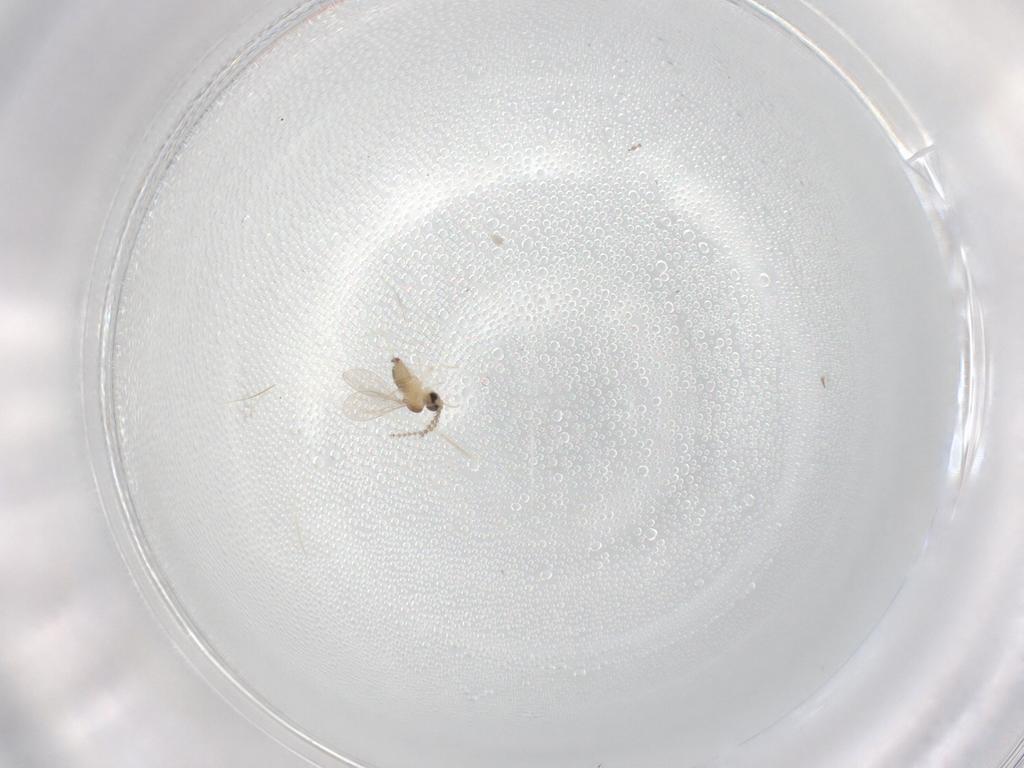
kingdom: Animalia
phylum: Arthropoda
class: Insecta
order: Diptera
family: Cecidomyiidae
